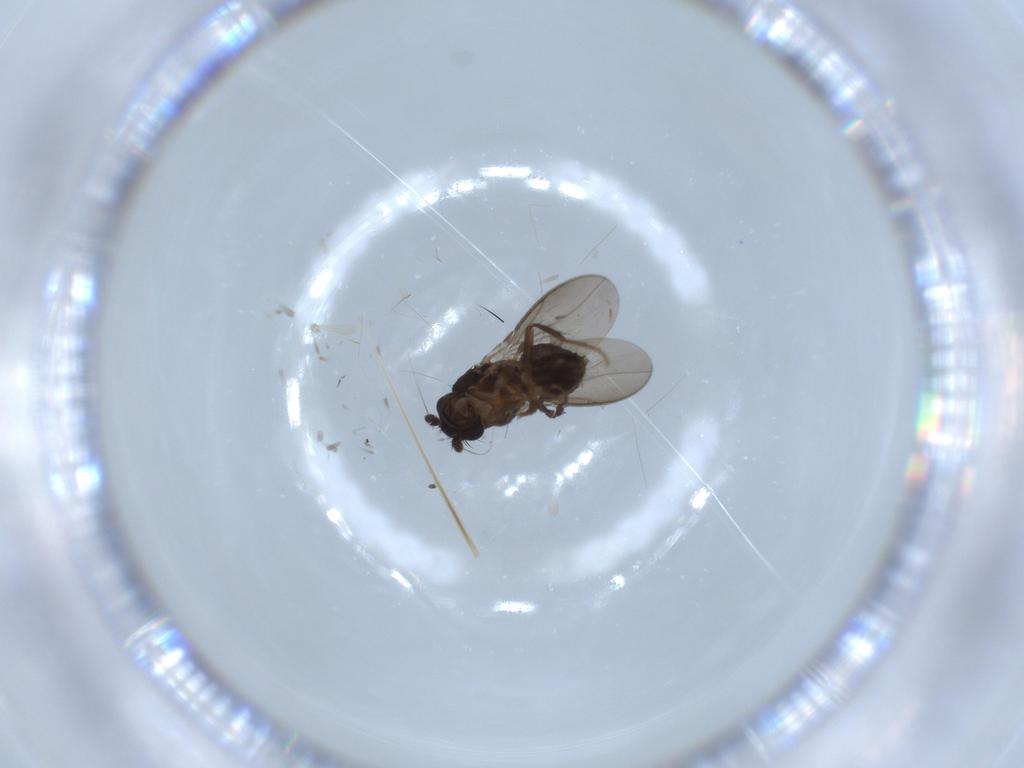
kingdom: Animalia
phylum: Arthropoda
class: Insecta
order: Diptera
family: Sphaeroceridae
